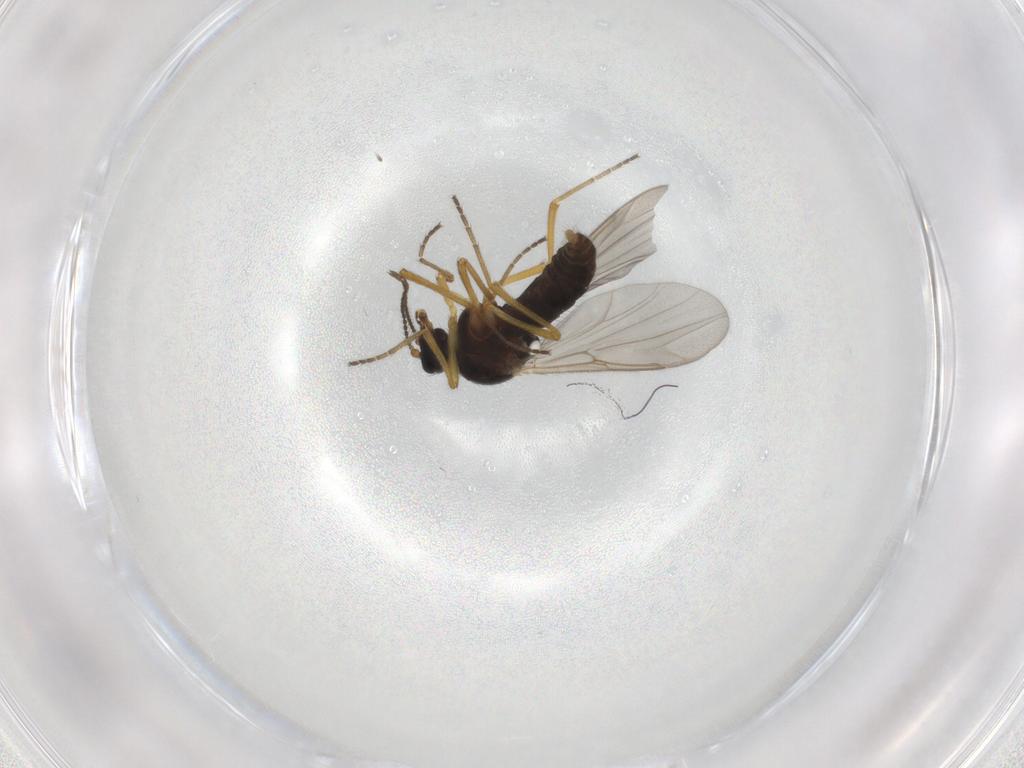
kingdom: Animalia
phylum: Arthropoda
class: Insecta
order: Diptera
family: Ceratopogonidae
